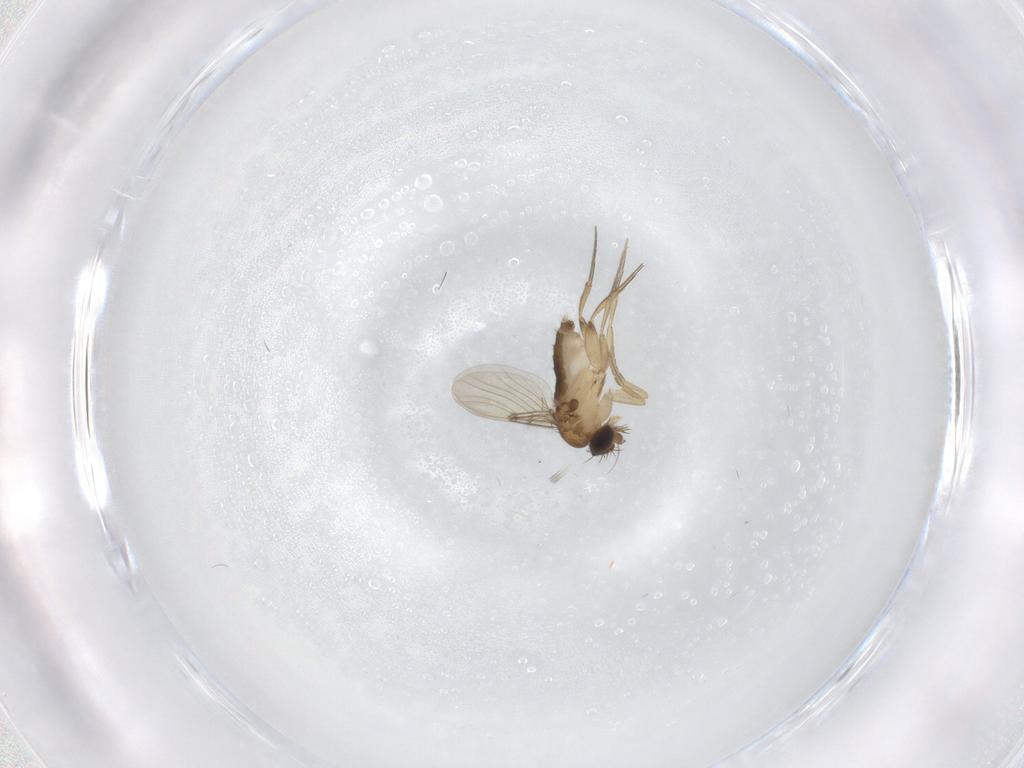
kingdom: Animalia
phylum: Arthropoda
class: Insecta
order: Diptera
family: Phoridae
